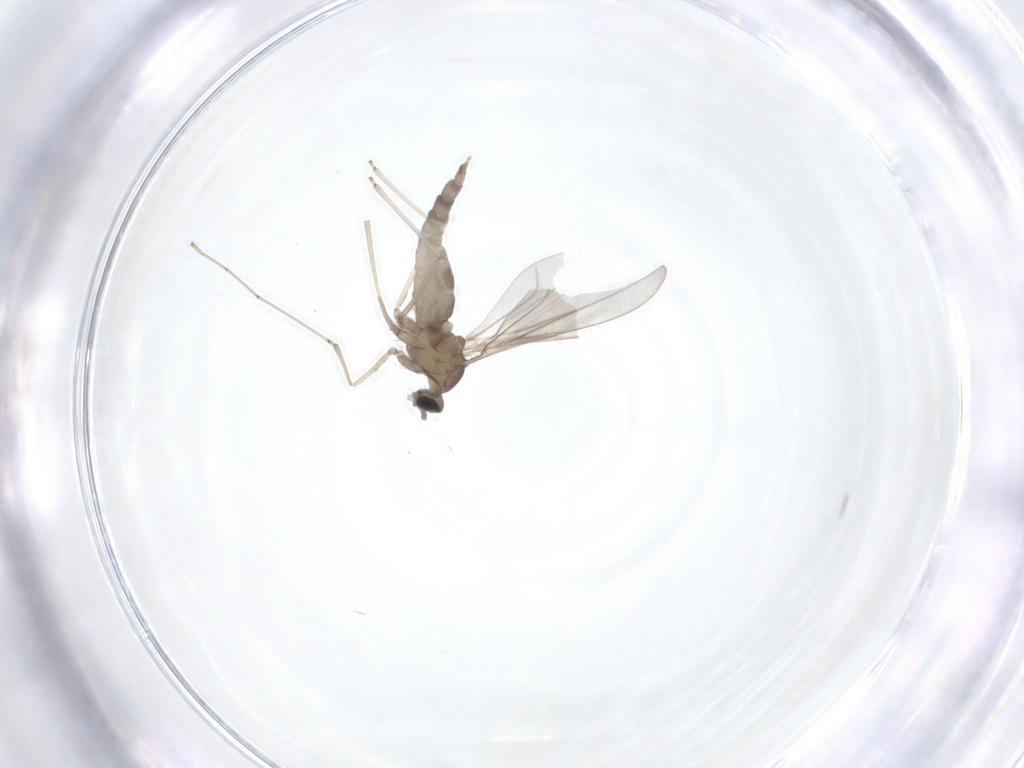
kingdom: Animalia
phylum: Arthropoda
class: Insecta
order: Diptera
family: Cecidomyiidae
